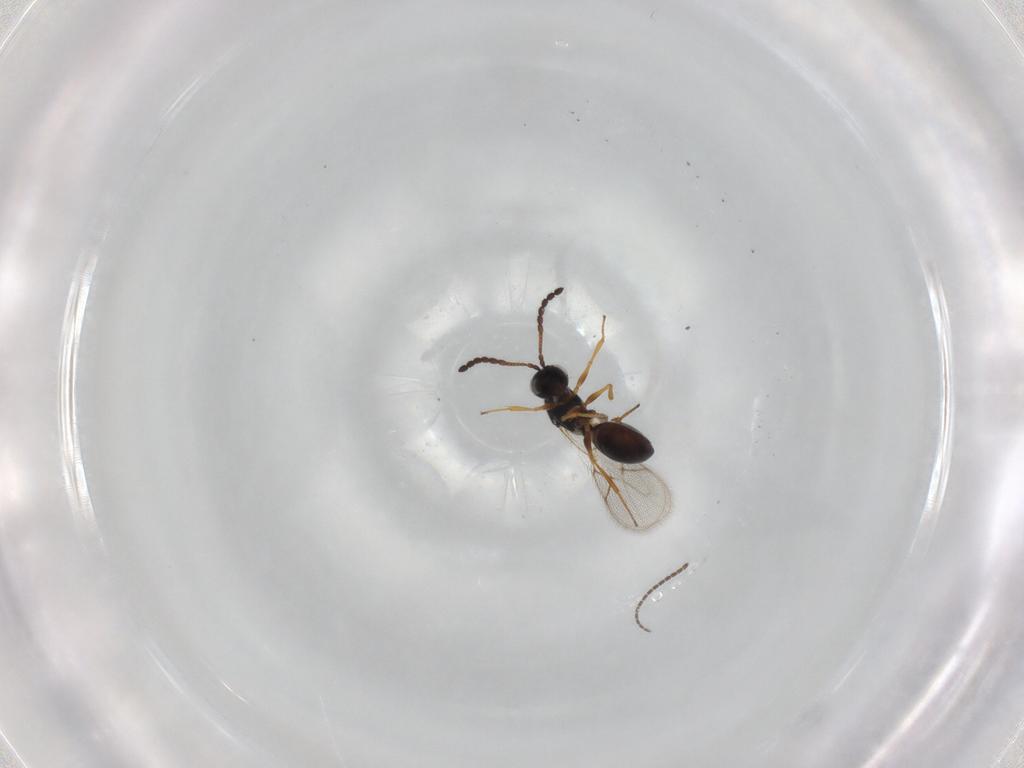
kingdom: Animalia
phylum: Arthropoda
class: Insecta
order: Hymenoptera
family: Figitidae
